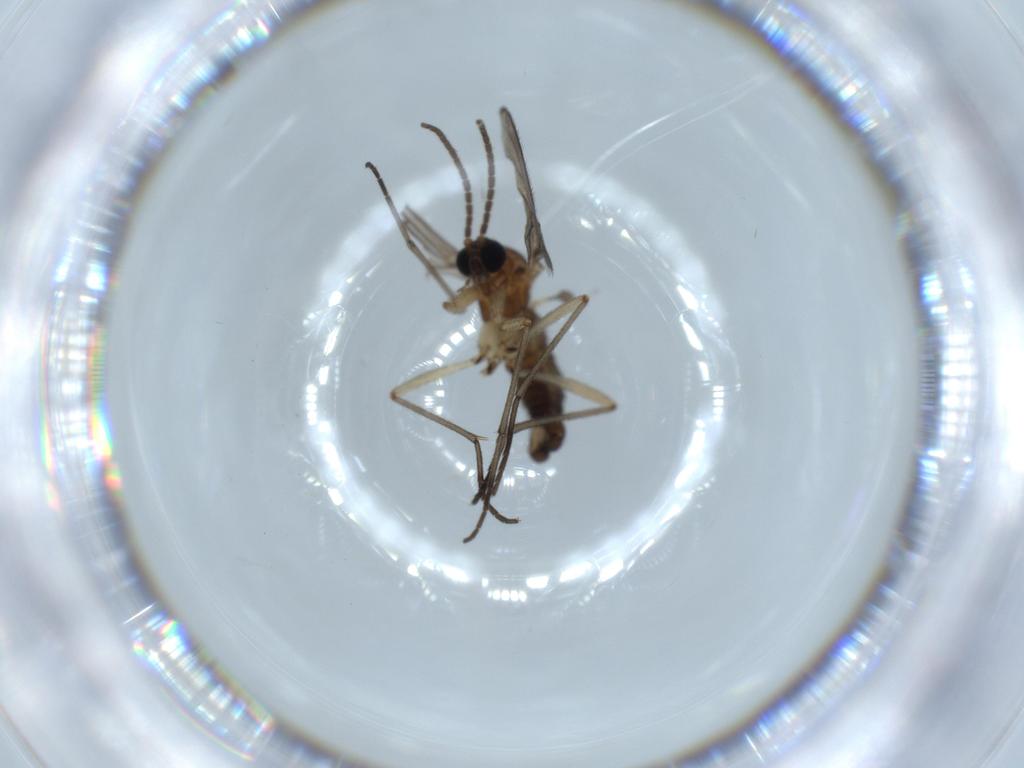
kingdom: Animalia
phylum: Arthropoda
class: Insecta
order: Diptera
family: Sciaridae
